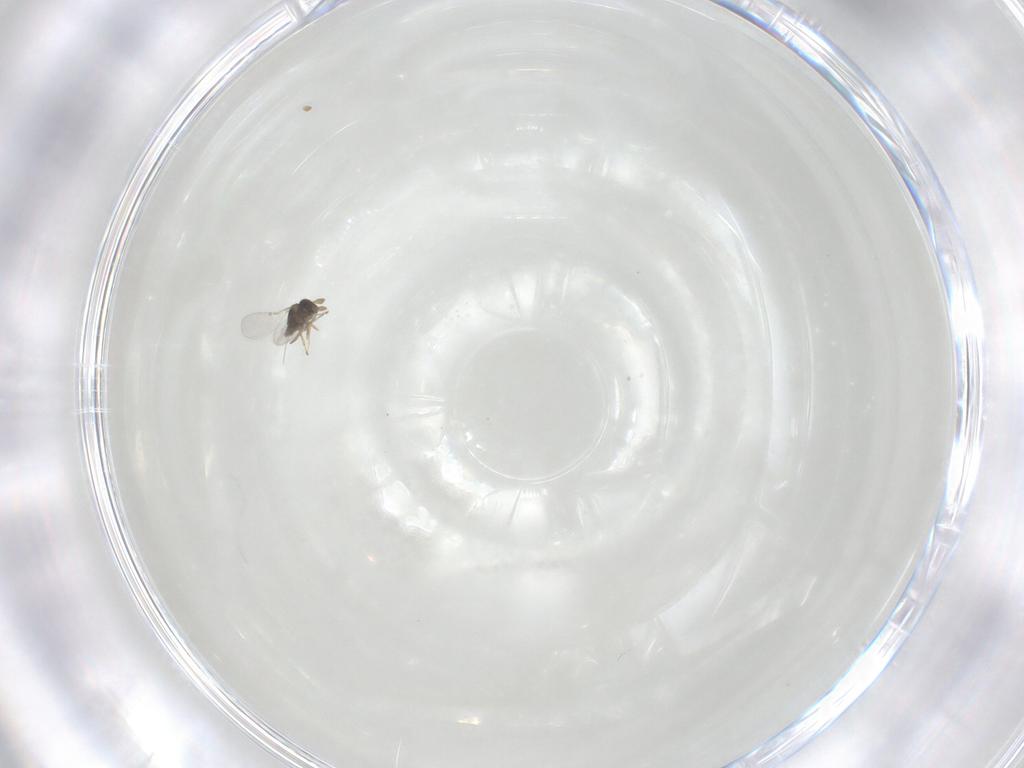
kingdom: Animalia
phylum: Arthropoda
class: Insecta
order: Hymenoptera
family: Encyrtidae
